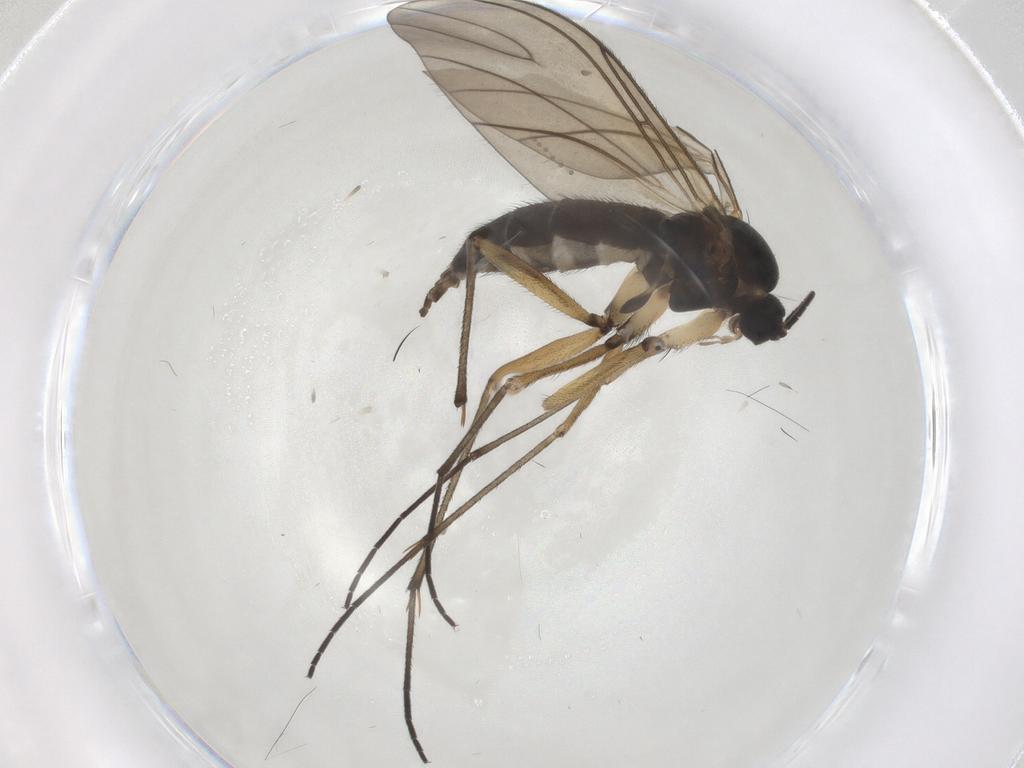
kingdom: Animalia
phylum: Arthropoda
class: Insecta
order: Diptera
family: Sciaridae
